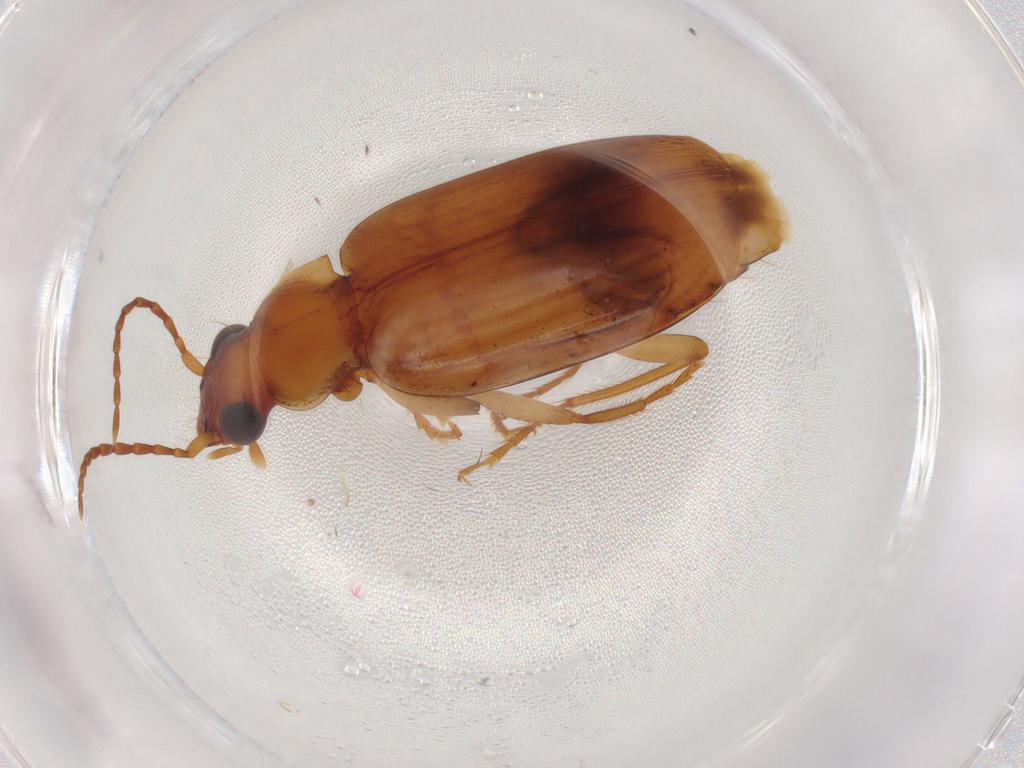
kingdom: Animalia
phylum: Arthropoda
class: Insecta
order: Coleoptera
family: Carabidae
